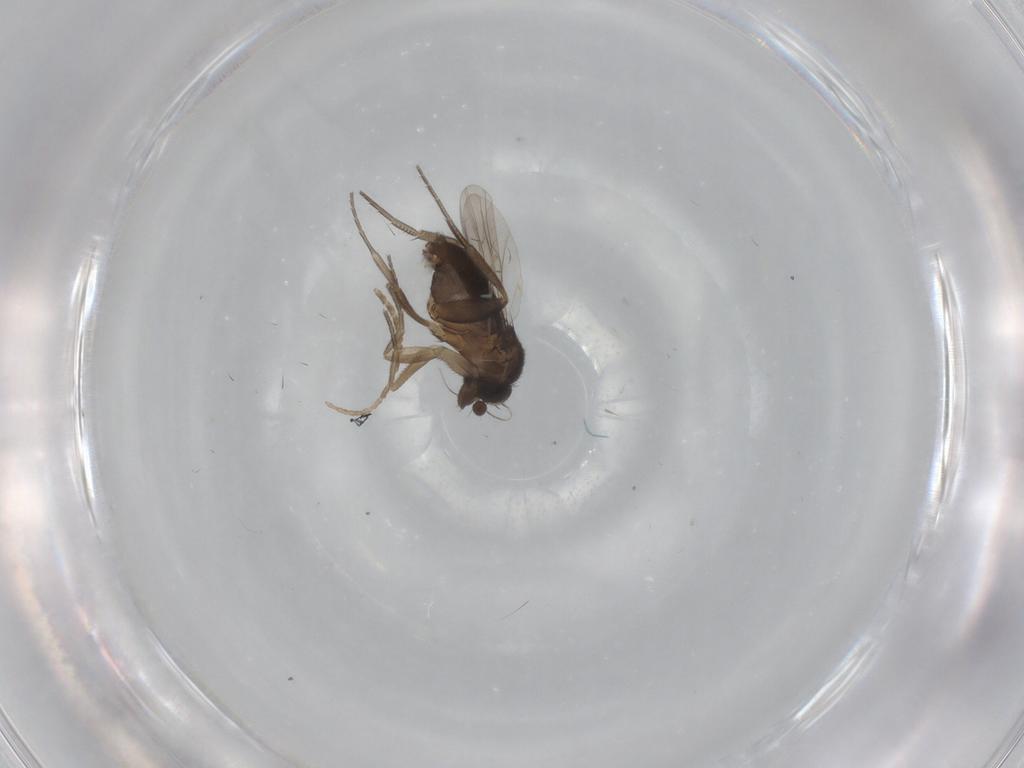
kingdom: Animalia
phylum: Arthropoda
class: Insecta
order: Diptera
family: Phoridae
